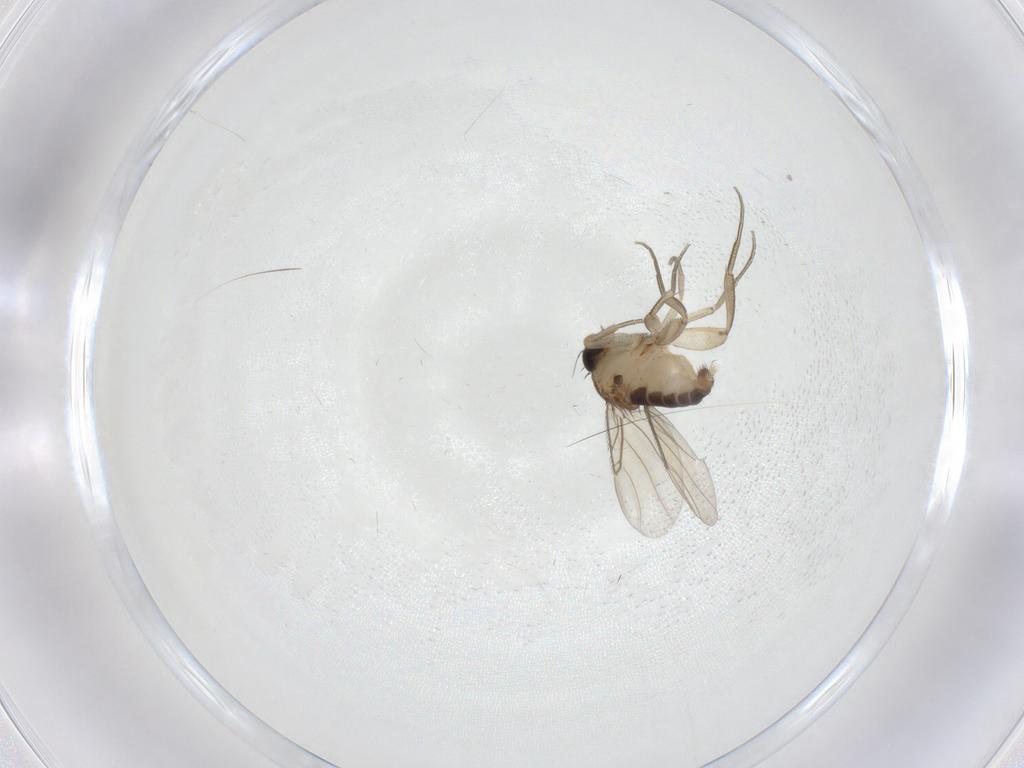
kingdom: Animalia
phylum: Arthropoda
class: Insecta
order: Diptera
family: Phoridae
